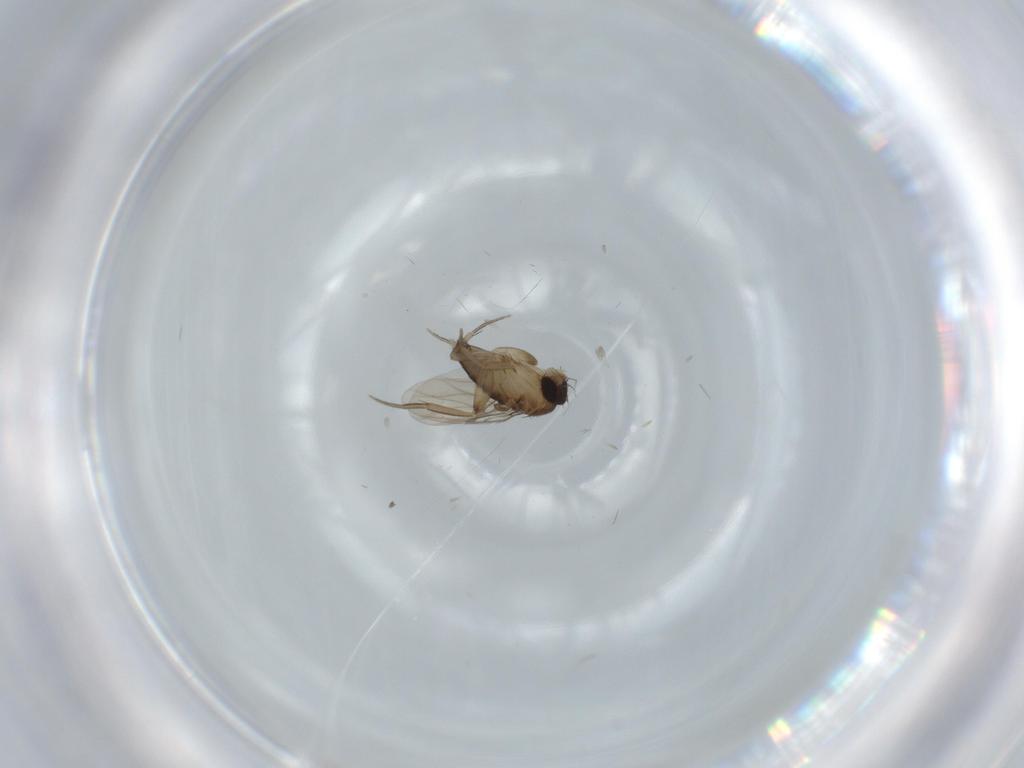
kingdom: Animalia
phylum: Arthropoda
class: Insecta
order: Diptera
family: Phoridae
